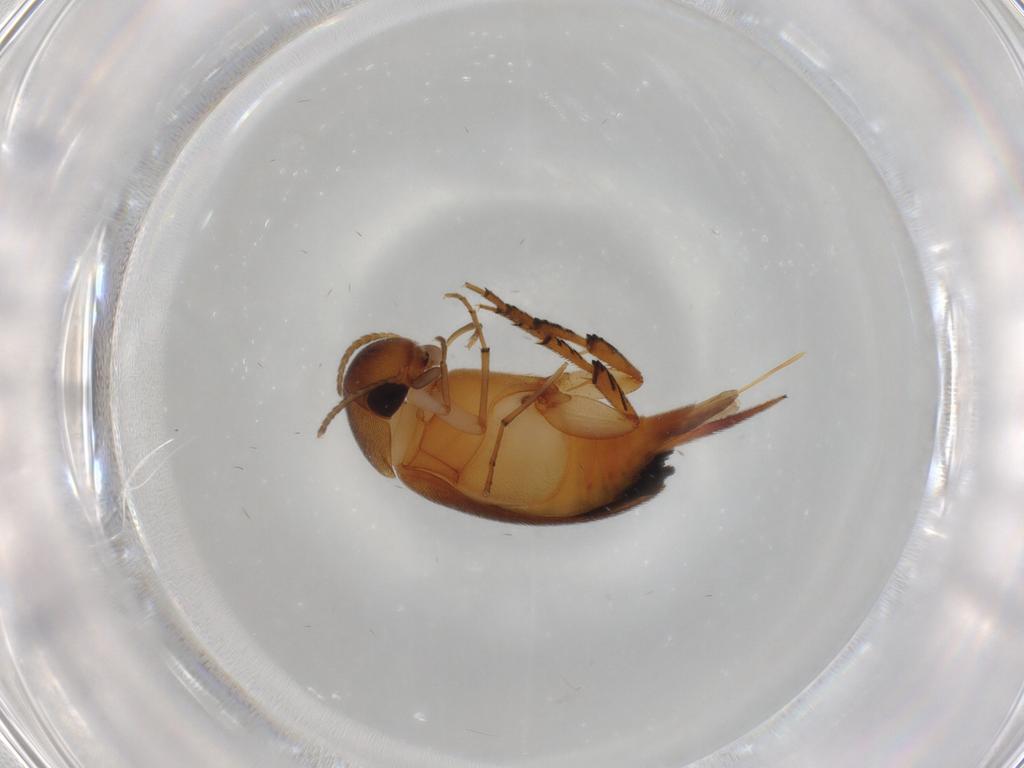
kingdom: Animalia
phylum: Arthropoda
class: Insecta
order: Coleoptera
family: Mordellidae
